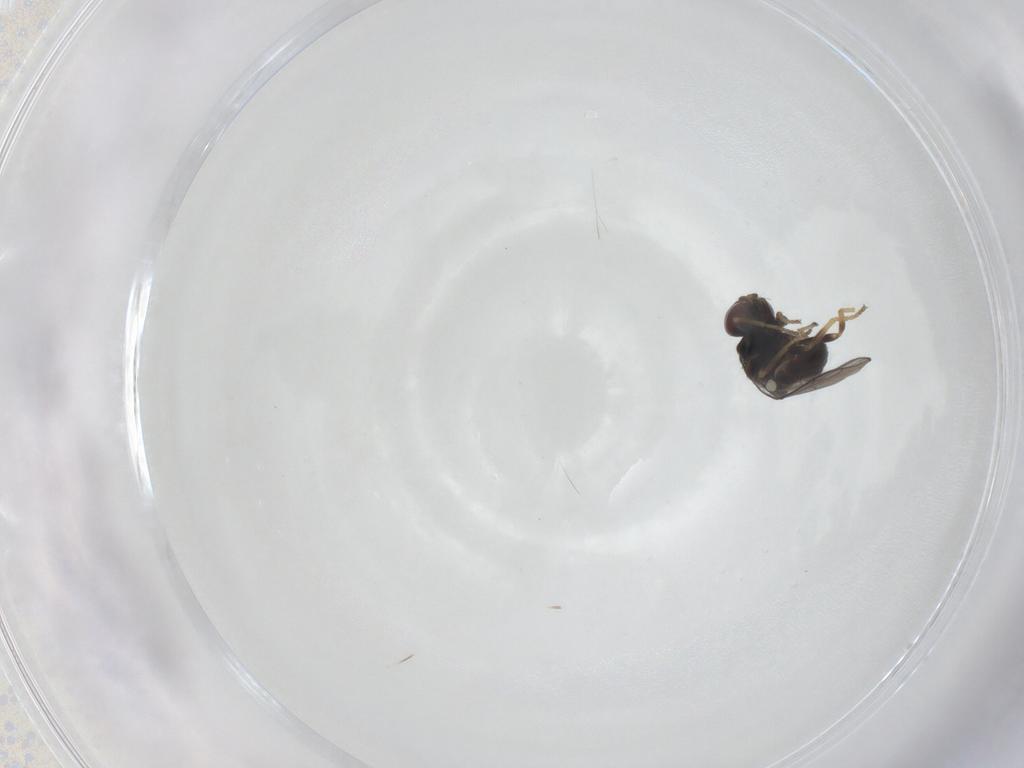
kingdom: Animalia
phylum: Arthropoda
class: Insecta
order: Diptera
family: Chloropidae
